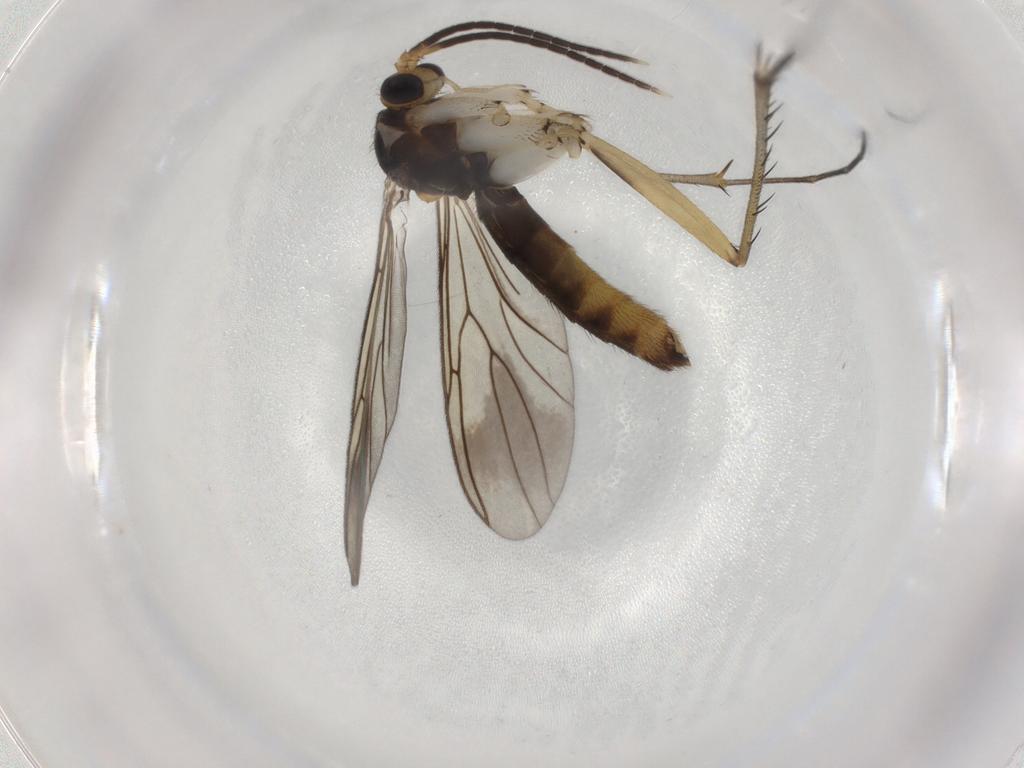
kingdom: Animalia
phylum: Arthropoda
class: Insecta
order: Diptera
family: Mycetophilidae
